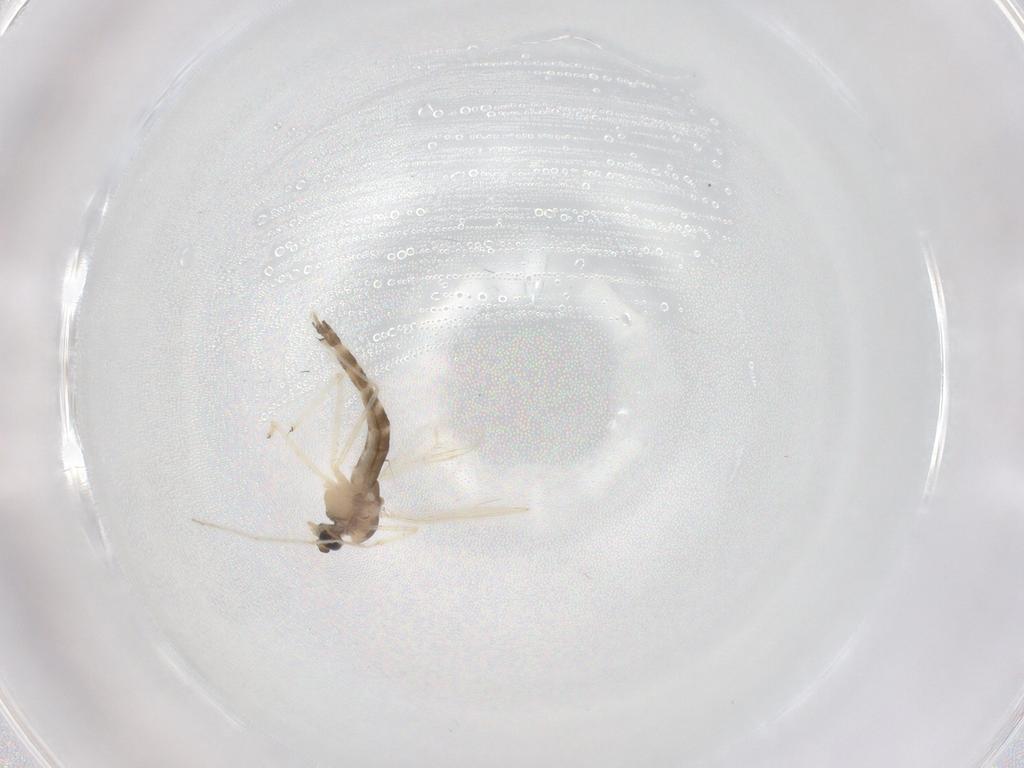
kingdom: Animalia
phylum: Arthropoda
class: Insecta
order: Diptera
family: Chironomidae
